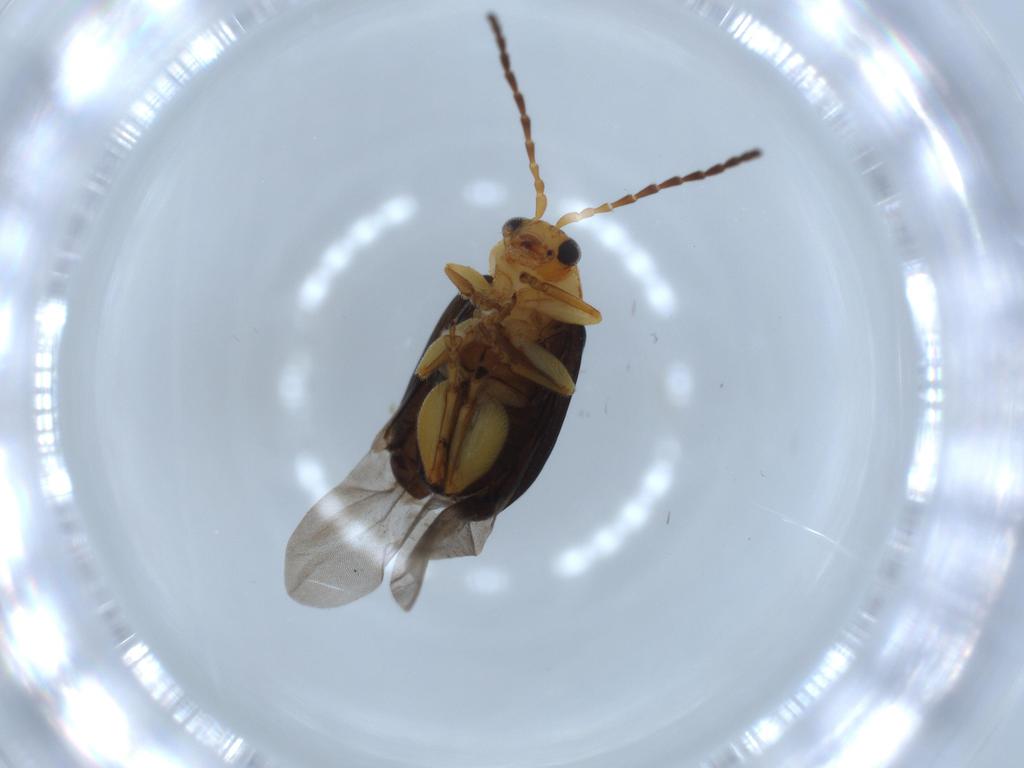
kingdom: Animalia
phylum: Arthropoda
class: Insecta
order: Coleoptera
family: Chrysomelidae
